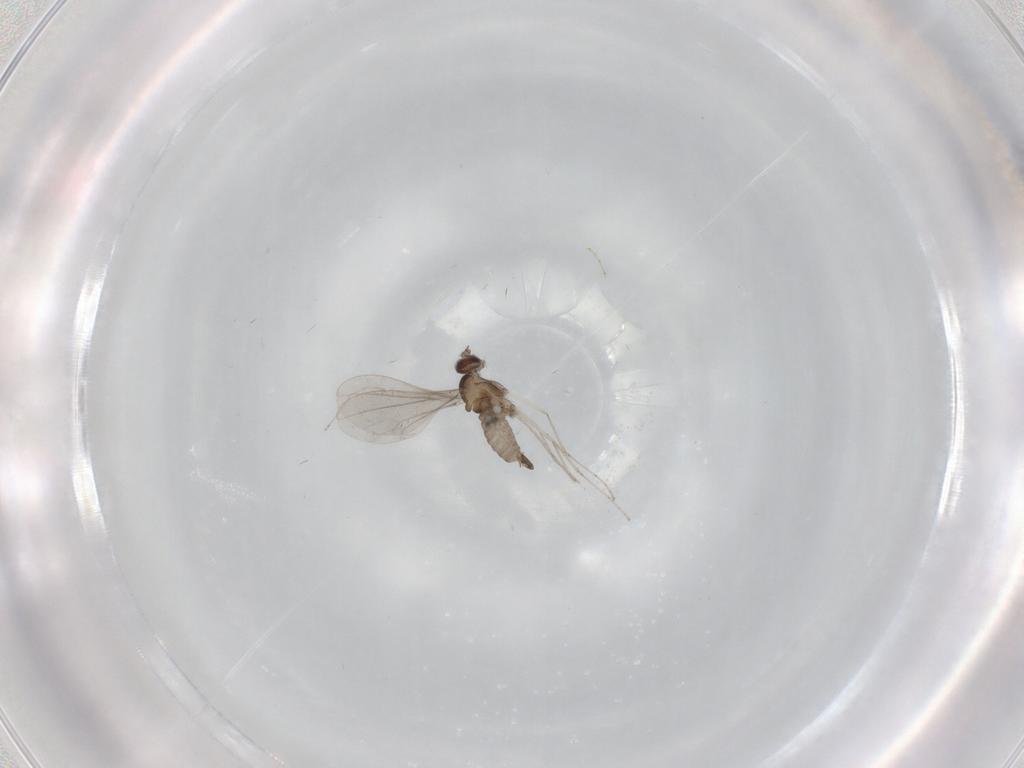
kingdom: Animalia
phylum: Arthropoda
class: Insecta
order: Diptera
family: Cecidomyiidae
